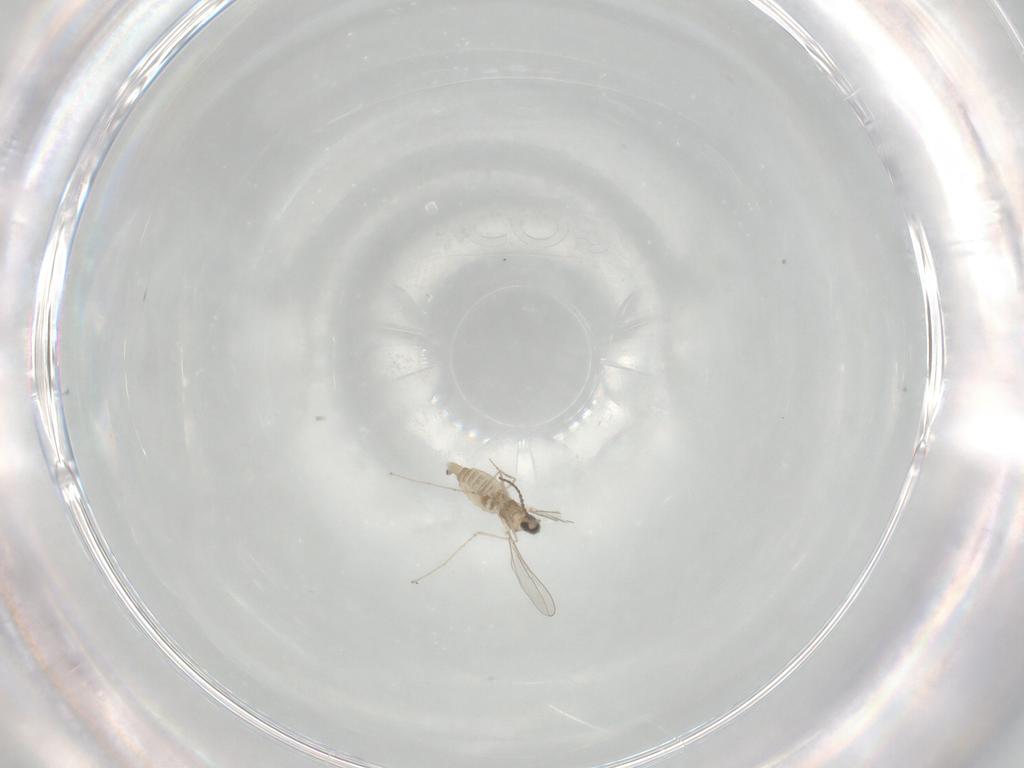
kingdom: Animalia
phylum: Arthropoda
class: Insecta
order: Diptera
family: Cecidomyiidae
